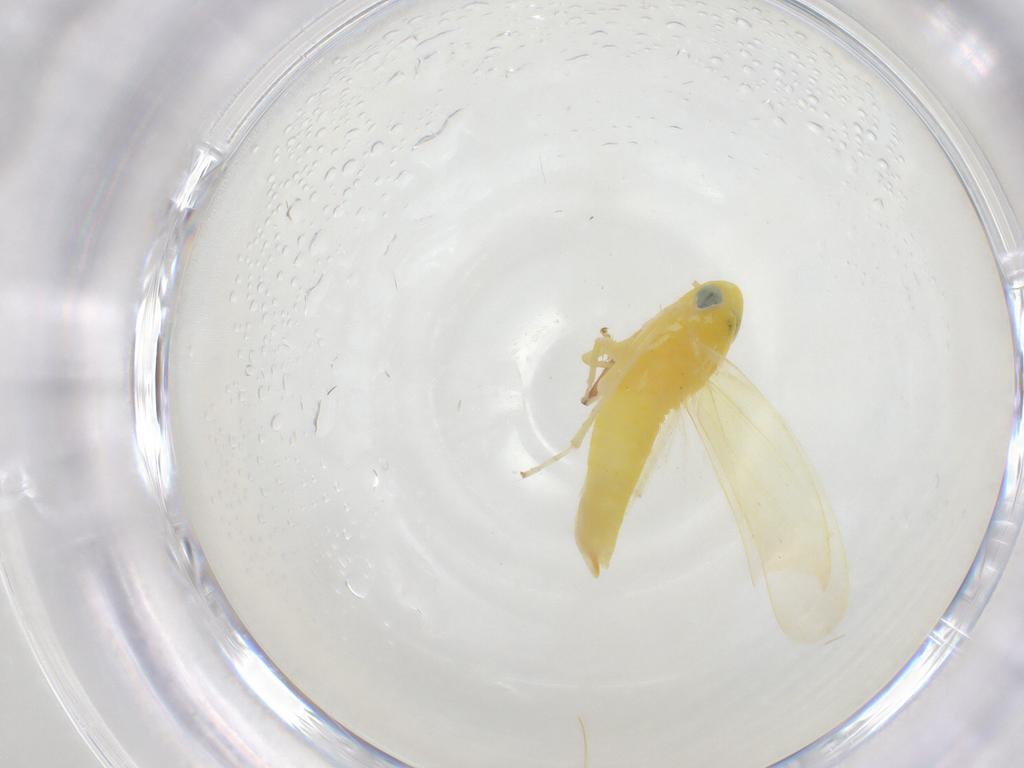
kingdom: Animalia
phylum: Arthropoda
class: Insecta
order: Hemiptera
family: Cicadellidae
